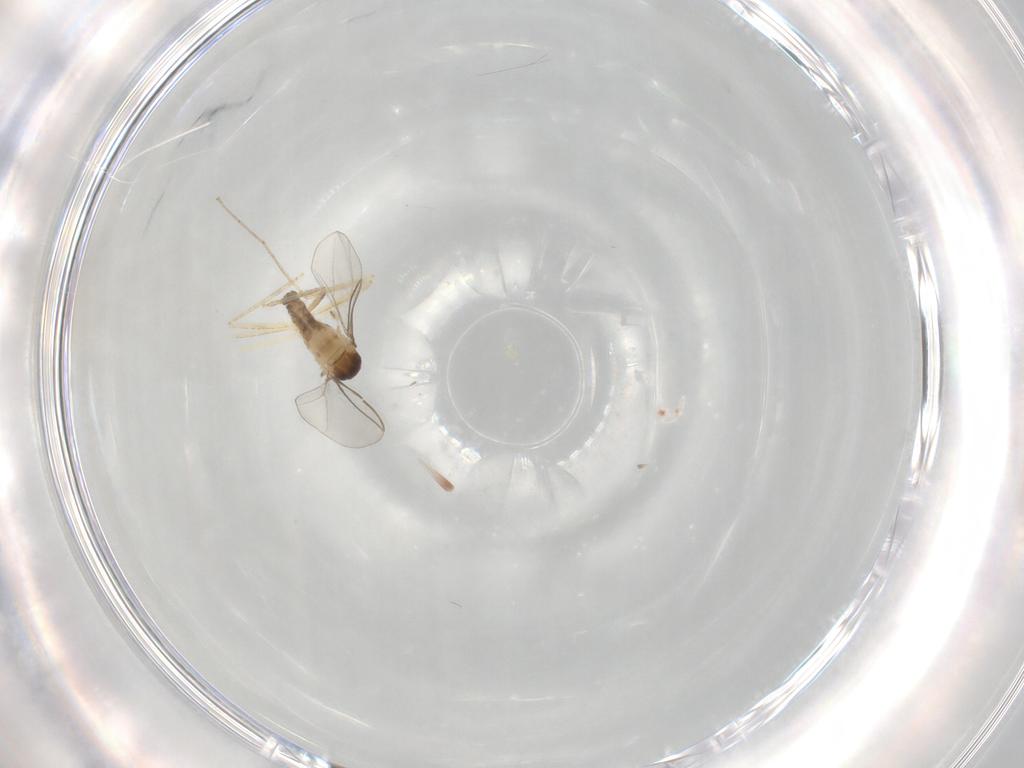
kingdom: Animalia
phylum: Arthropoda
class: Insecta
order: Diptera
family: Cecidomyiidae
